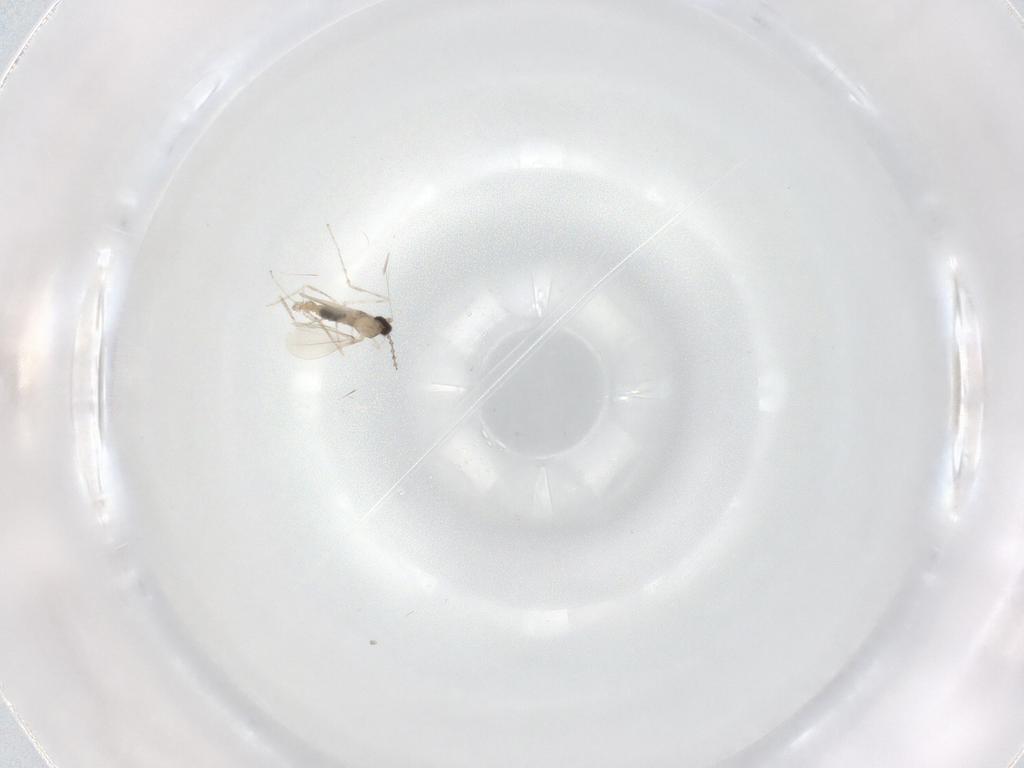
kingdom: Animalia
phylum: Arthropoda
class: Insecta
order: Diptera
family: Cecidomyiidae
